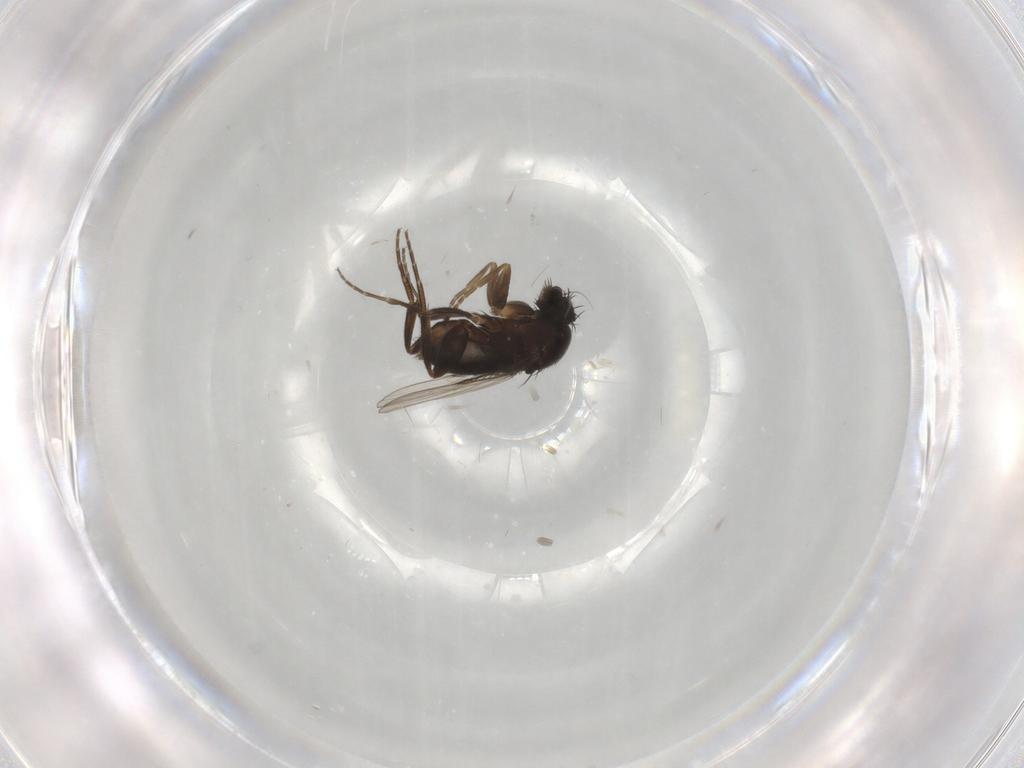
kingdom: Animalia
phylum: Arthropoda
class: Insecta
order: Diptera
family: Phoridae
